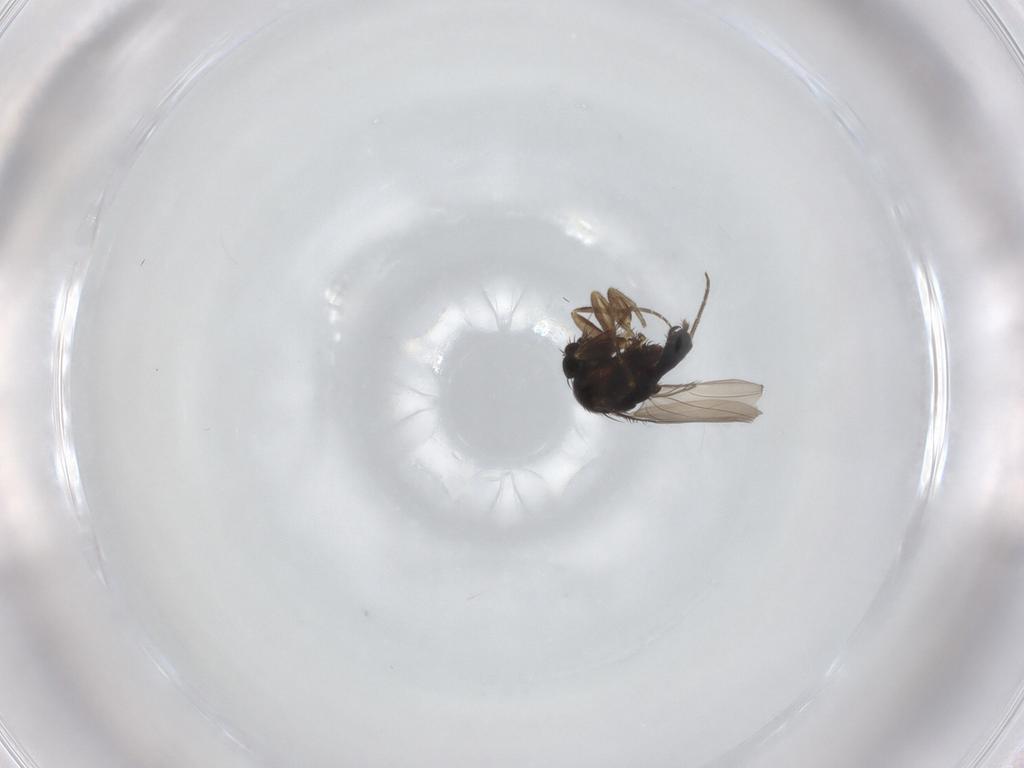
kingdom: Animalia
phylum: Arthropoda
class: Insecta
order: Diptera
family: Phoridae
